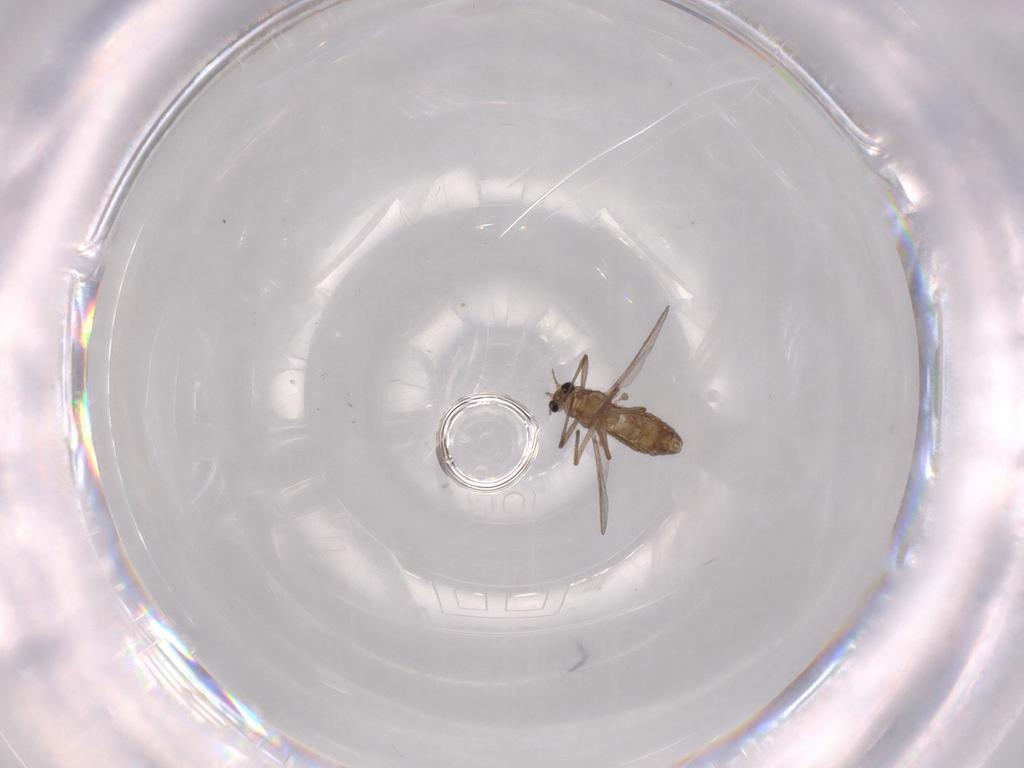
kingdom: Animalia
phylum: Arthropoda
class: Insecta
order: Diptera
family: Chironomidae
